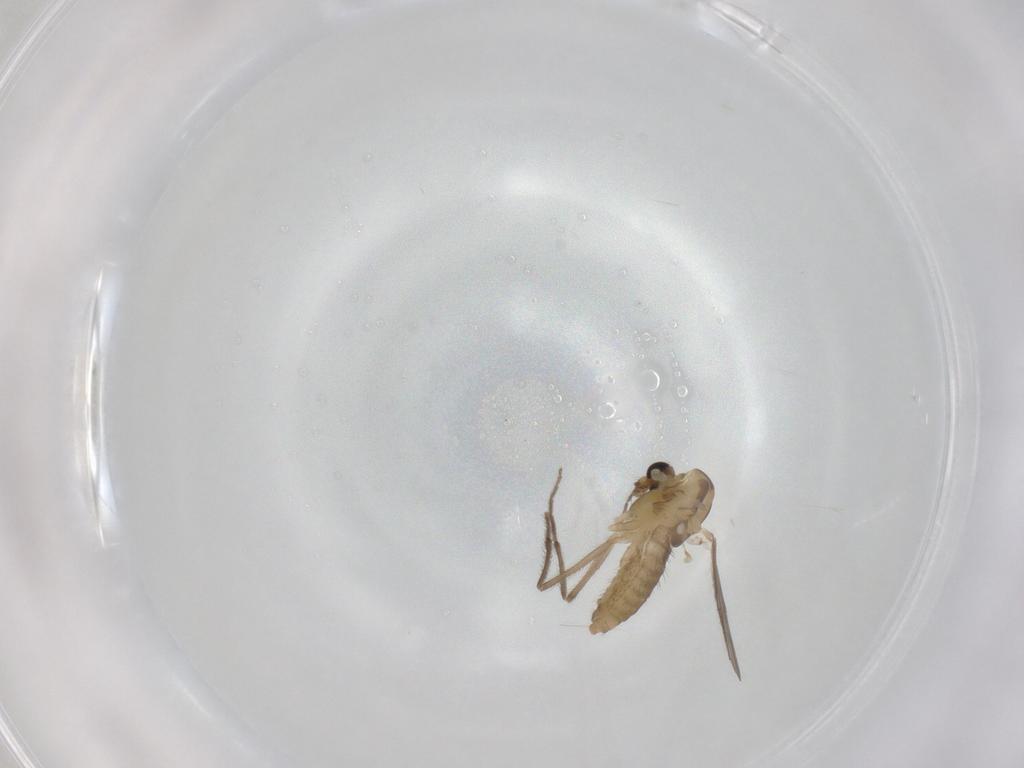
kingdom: Animalia
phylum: Arthropoda
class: Insecta
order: Diptera
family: Chironomidae
